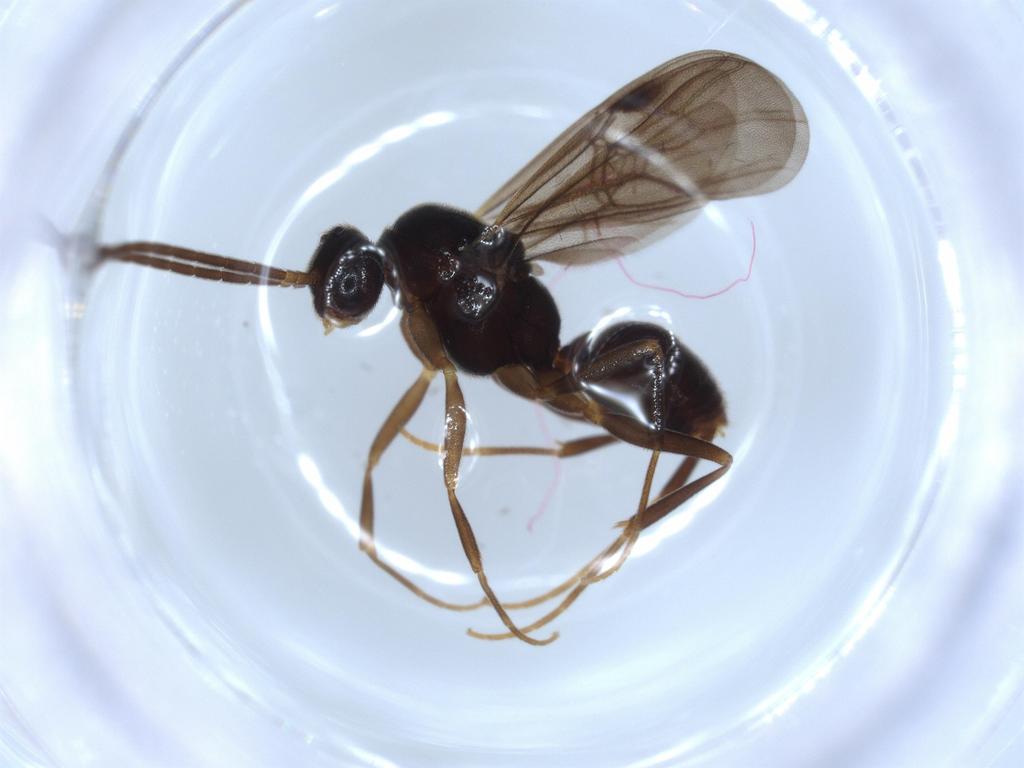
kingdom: Animalia
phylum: Arthropoda
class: Insecta
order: Hymenoptera
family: Formicidae
